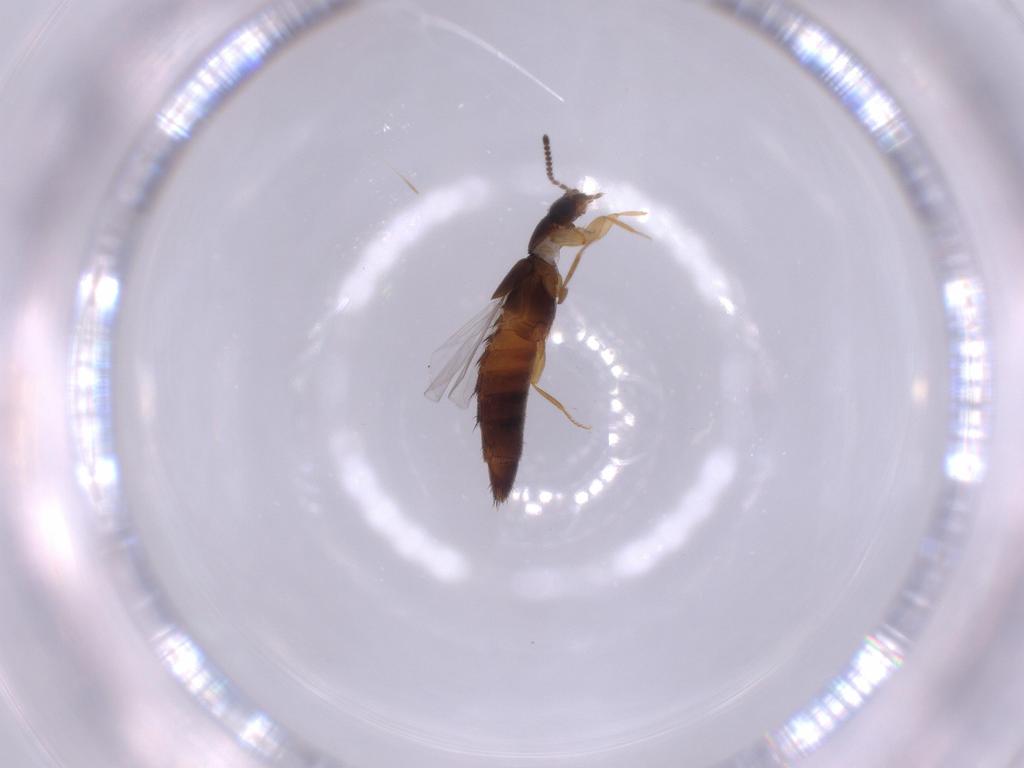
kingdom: Animalia
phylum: Arthropoda
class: Insecta
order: Coleoptera
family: Staphylinidae
